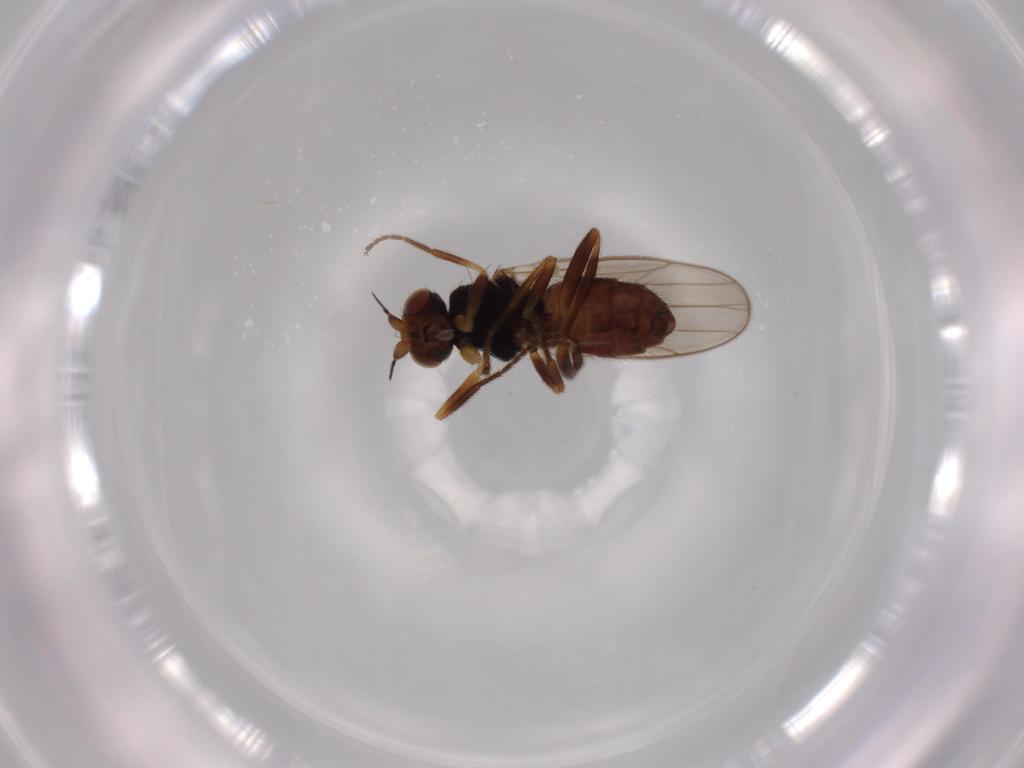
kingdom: Animalia
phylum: Arthropoda
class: Insecta
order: Diptera
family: Chloropidae
